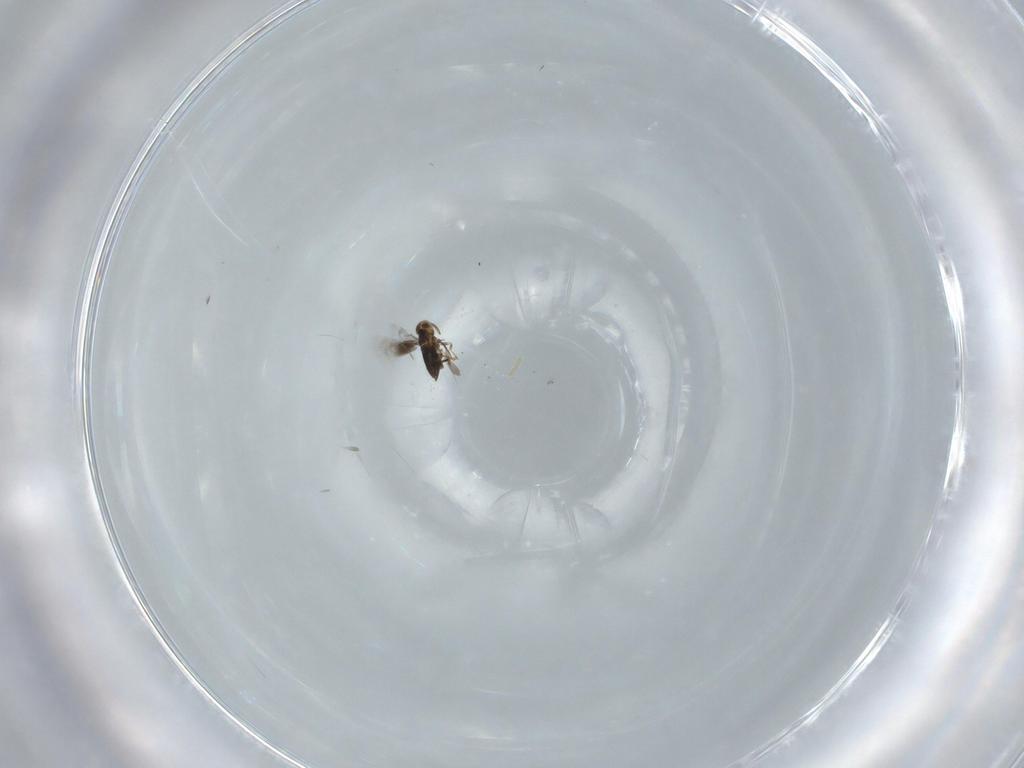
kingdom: Animalia
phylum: Arthropoda
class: Insecta
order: Hymenoptera
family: Signiphoridae
